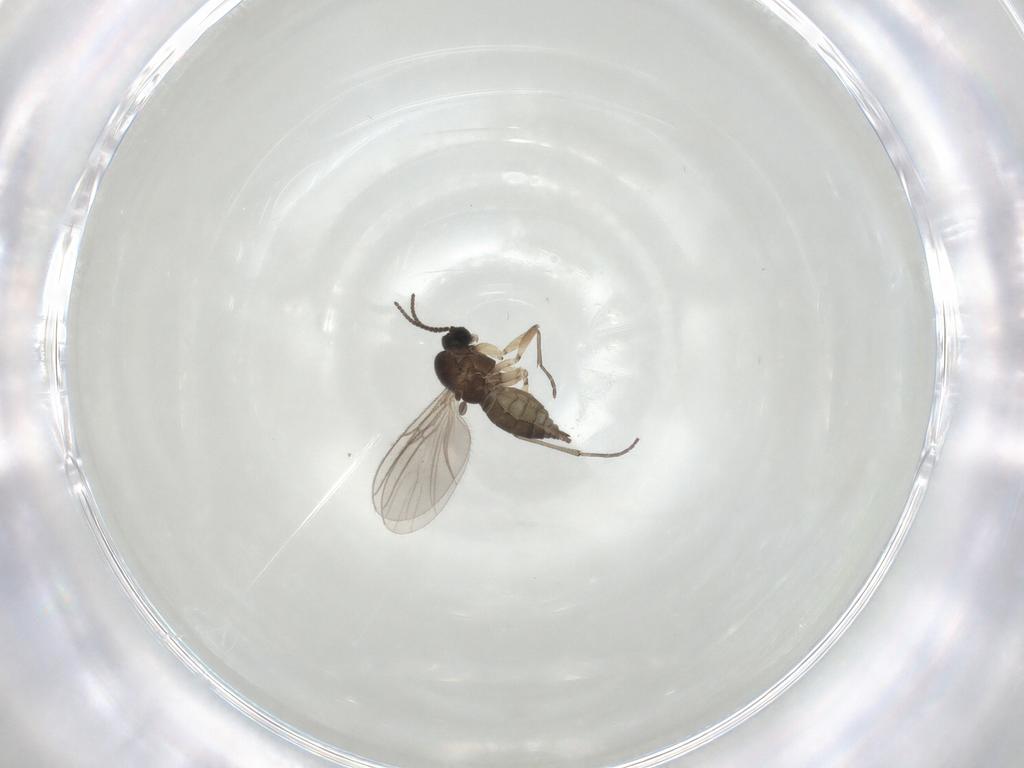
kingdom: Animalia
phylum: Arthropoda
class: Insecta
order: Diptera
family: Sciaridae
